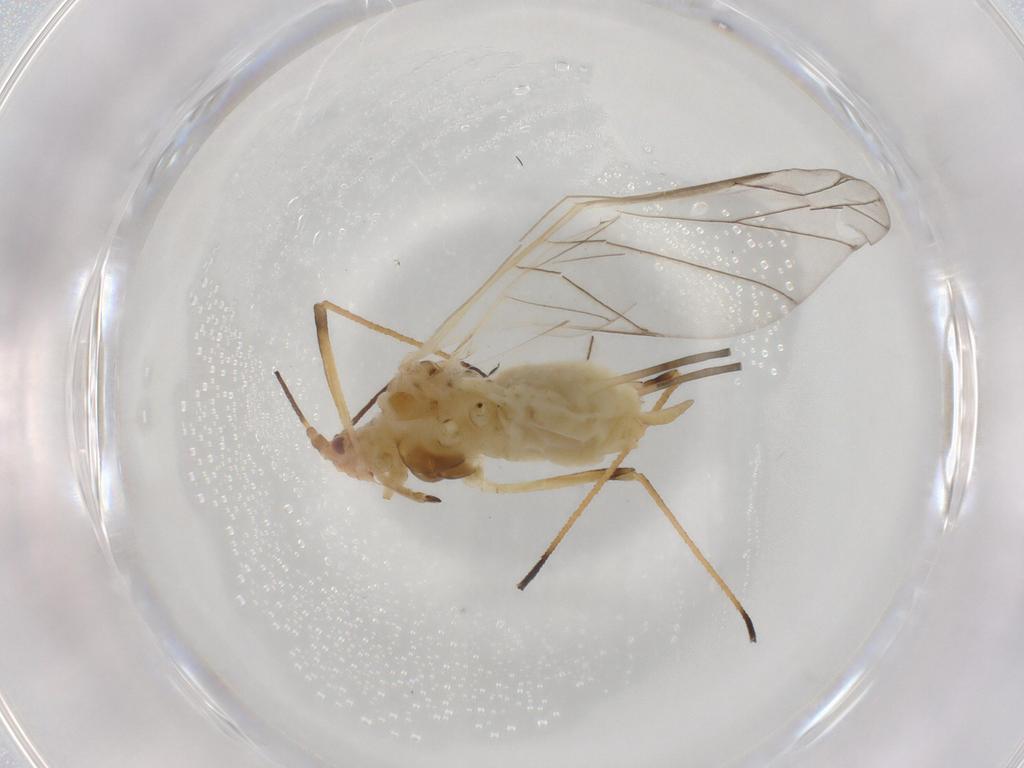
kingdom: Animalia
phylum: Arthropoda
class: Insecta
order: Hemiptera
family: Aphididae
